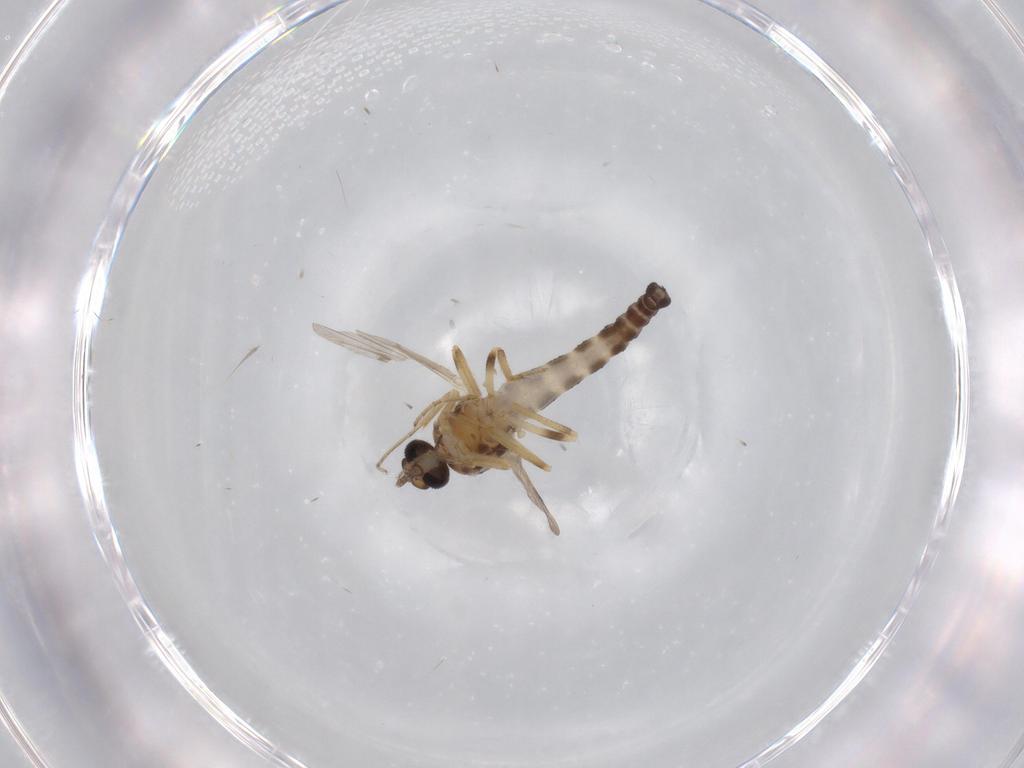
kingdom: Animalia
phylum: Arthropoda
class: Insecta
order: Diptera
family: Ceratopogonidae
